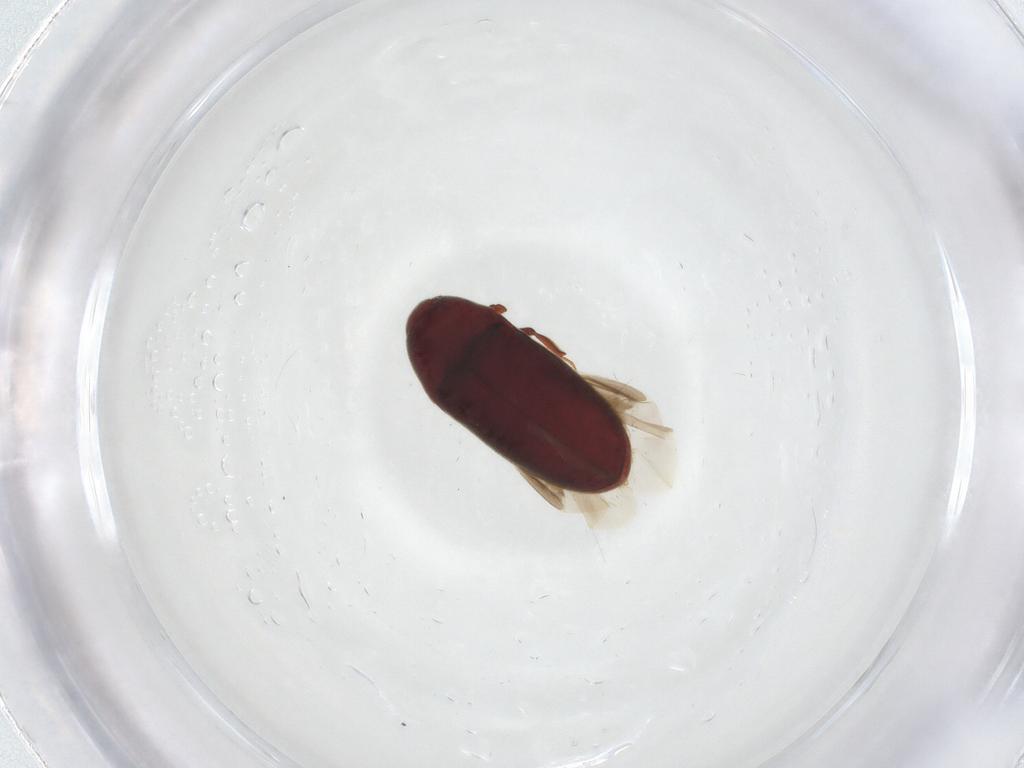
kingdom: Animalia
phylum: Arthropoda
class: Insecta
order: Coleoptera
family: Throscidae
